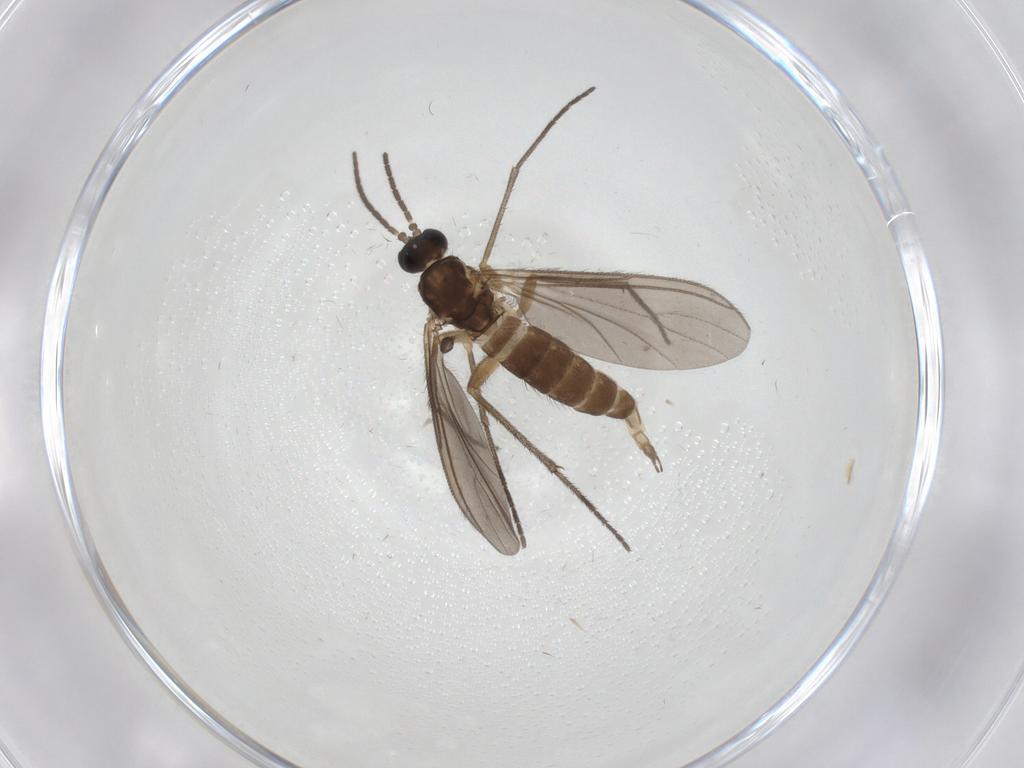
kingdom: Animalia
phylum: Arthropoda
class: Insecta
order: Diptera
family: Sciaridae
